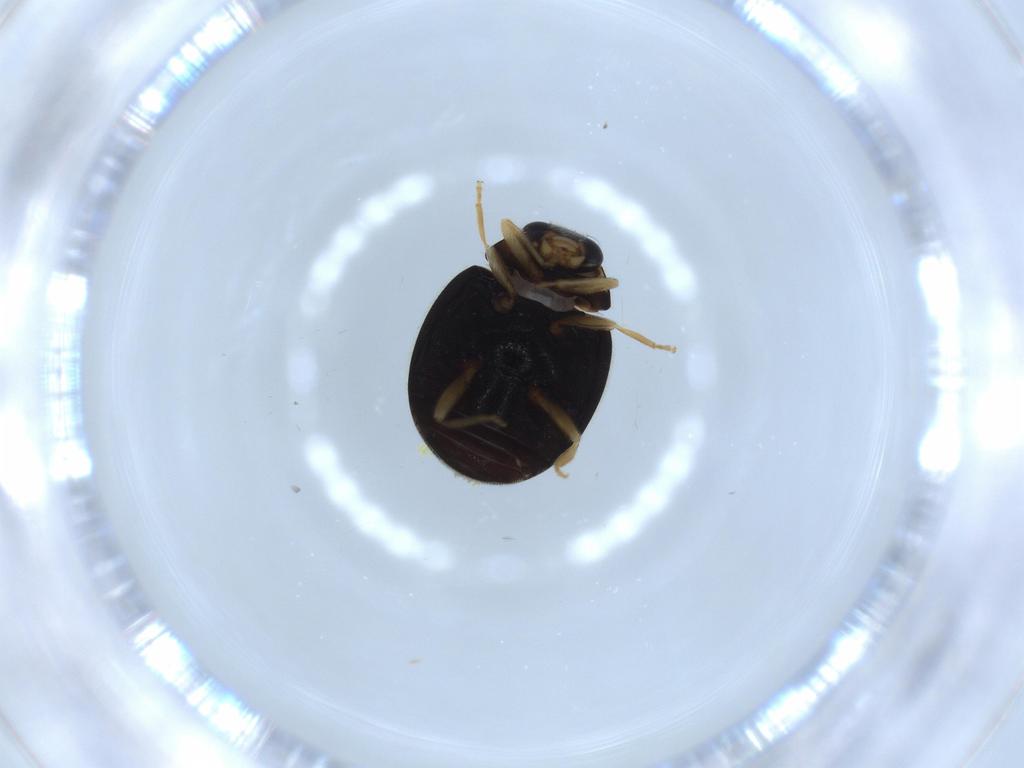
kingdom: Animalia
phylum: Arthropoda
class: Insecta
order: Coleoptera
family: Coccinellidae
